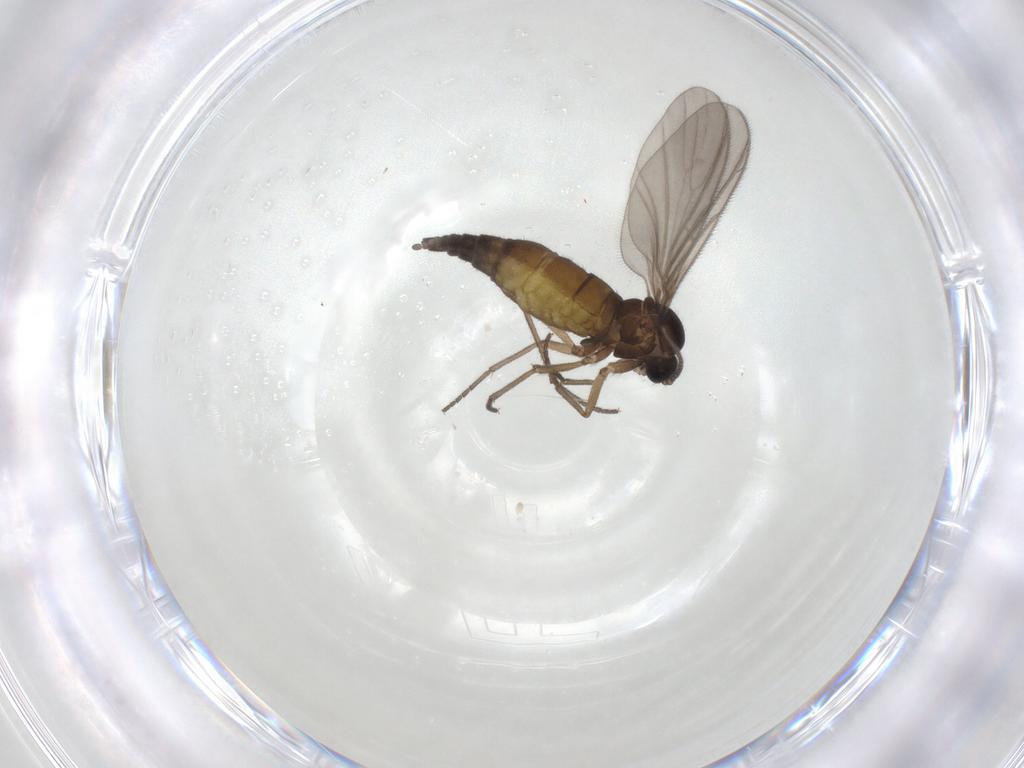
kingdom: Animalia
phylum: Arthropoda
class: Insecta
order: Diptera
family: Sciaridae
